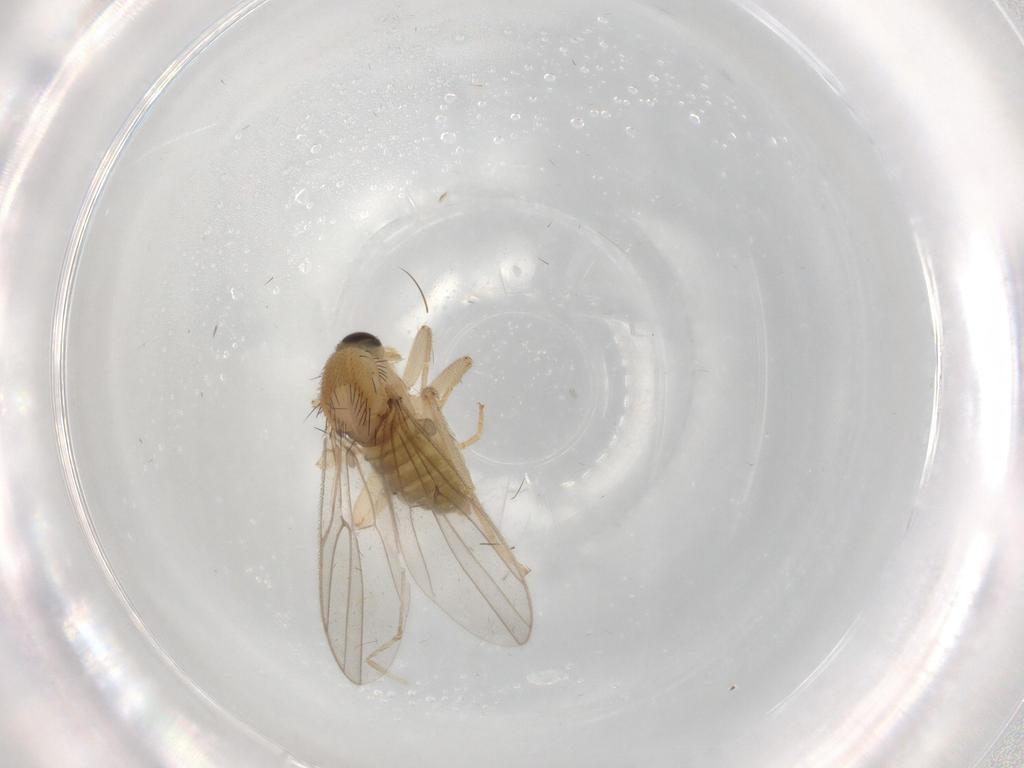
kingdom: Animalia
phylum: Arthropoda
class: Insecta
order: Diptera
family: Hybotidae
